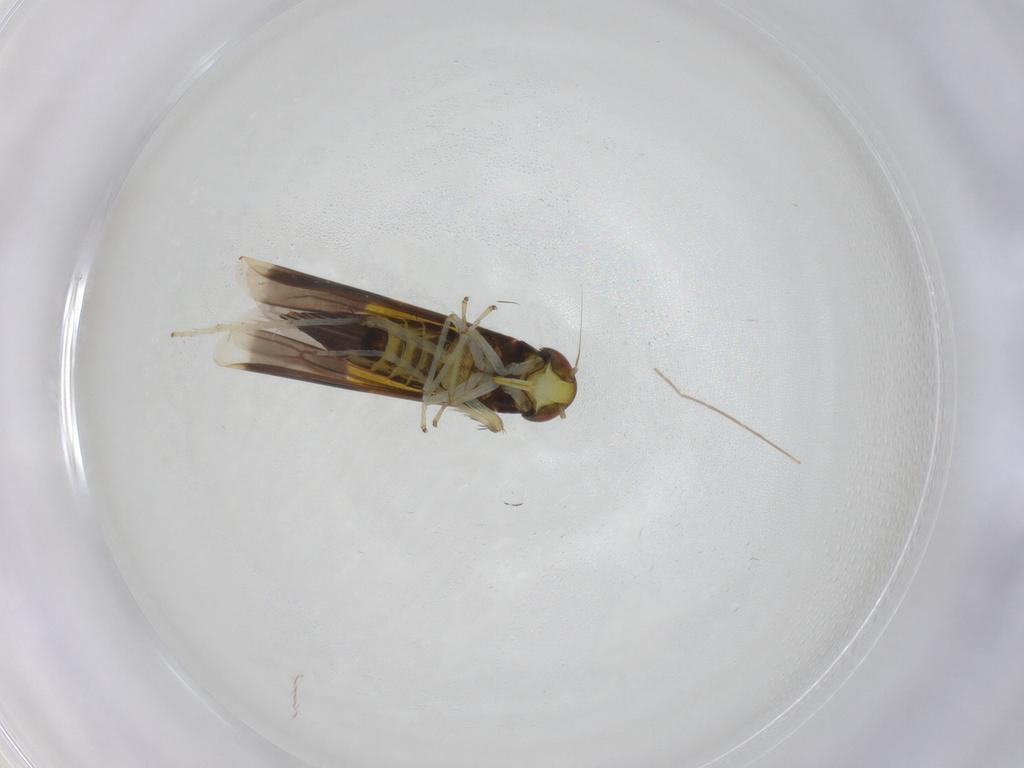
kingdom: Animalia
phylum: Arthropoda
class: Insecta
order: Hemiptera
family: Cicadellidae
